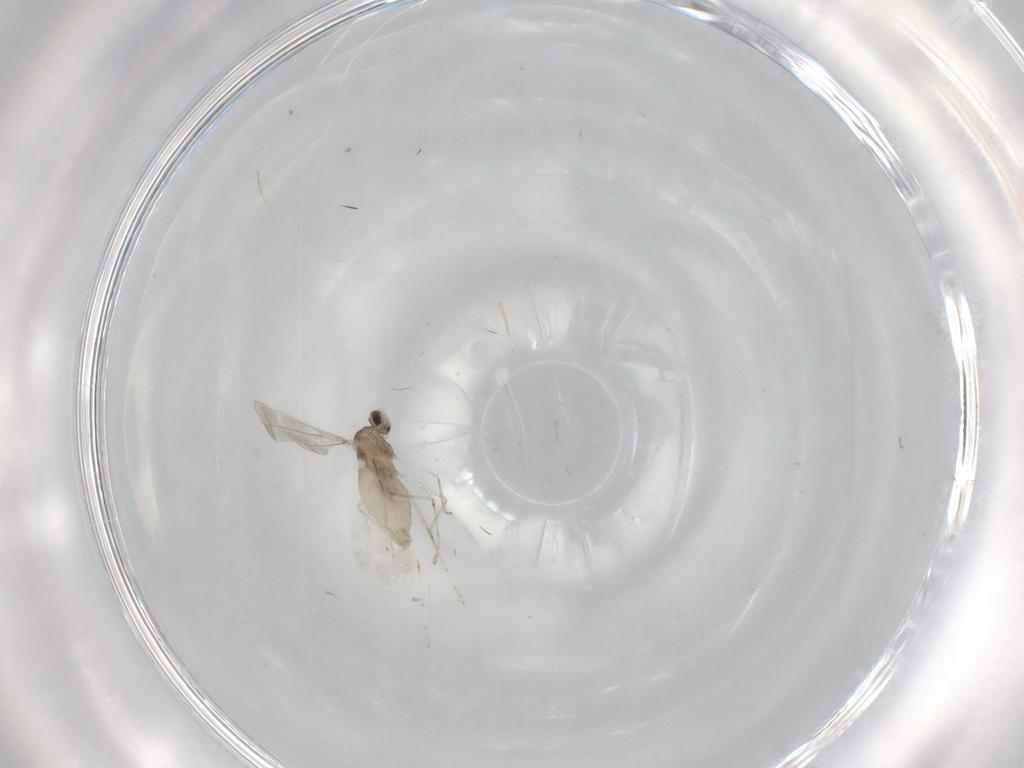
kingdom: Animalia
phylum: Arthropoda
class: Insecta
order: Diptera
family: Cecidomyiidae
